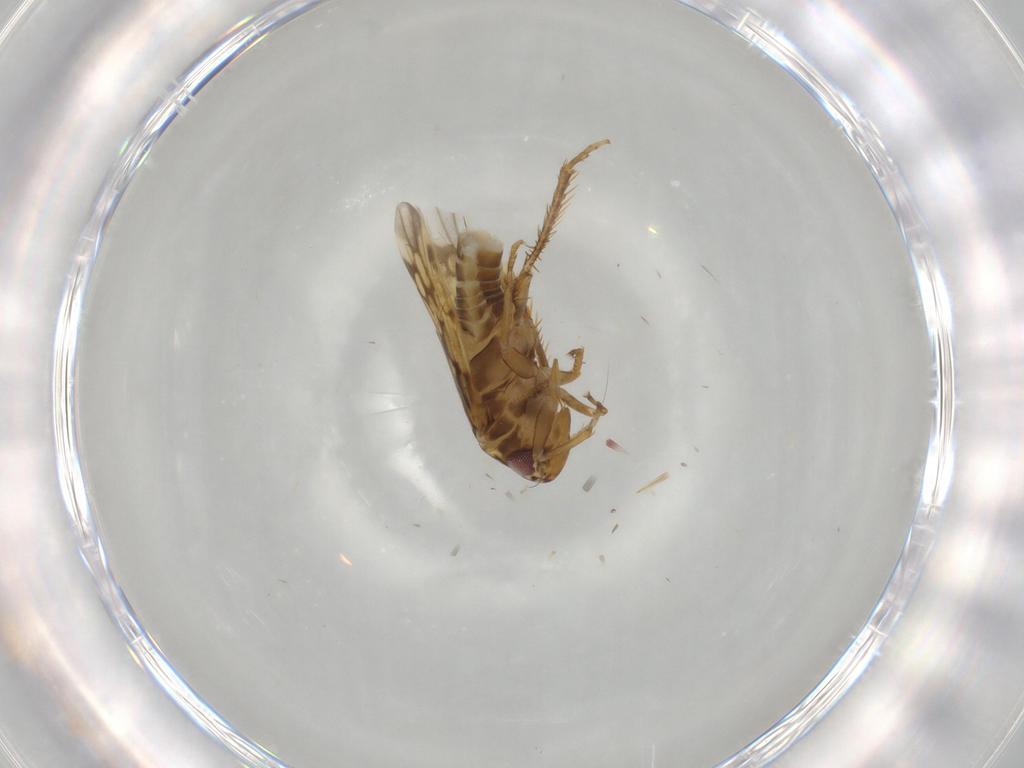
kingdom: Animalia
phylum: Arthropoda
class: Insecta
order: Hemiptera
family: Cicadellidae
